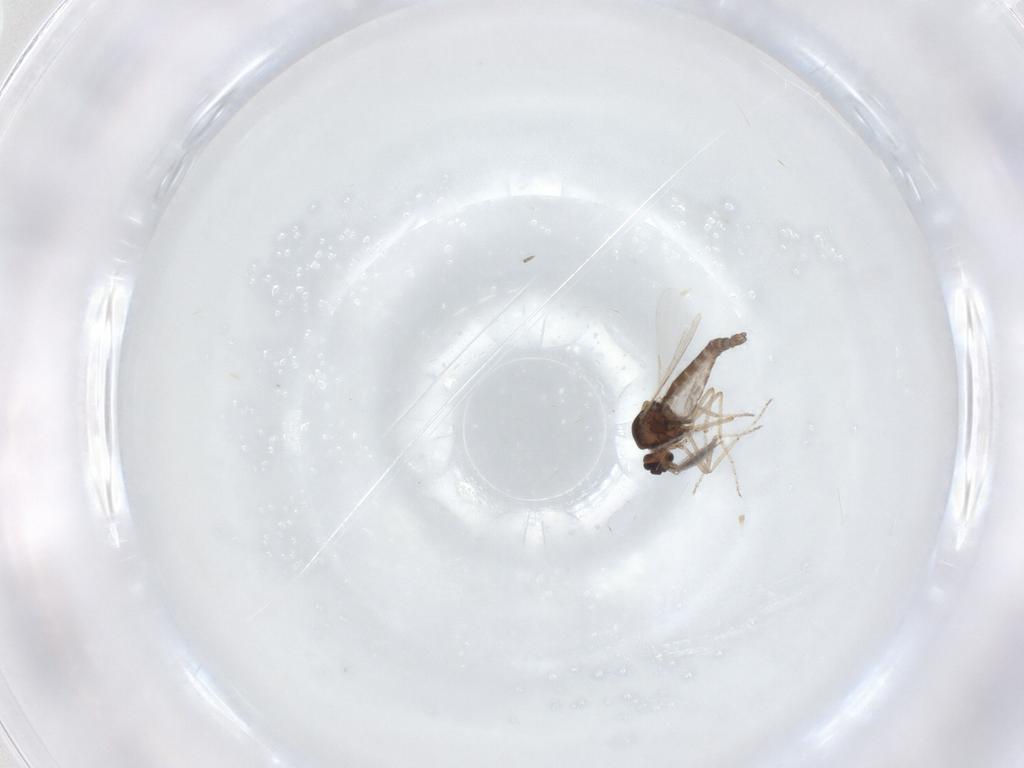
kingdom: Animalia
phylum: Arthropoda
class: Insecta
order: Diptera
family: Ceratopogonidae
